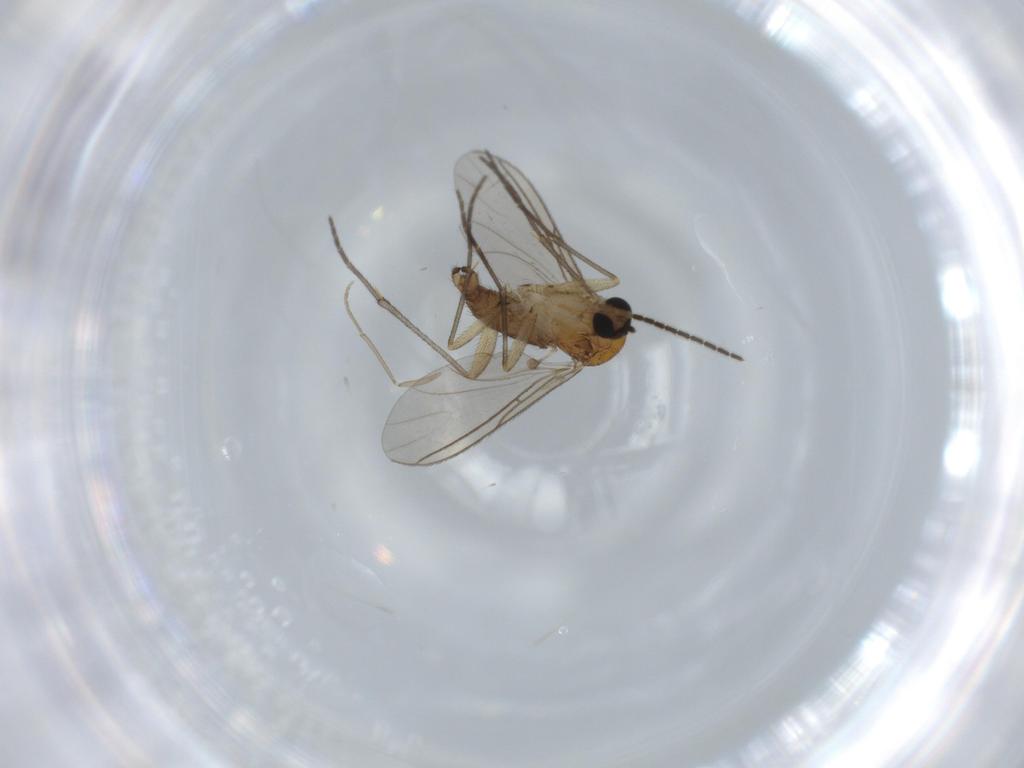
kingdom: Animalia
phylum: Arthropoda
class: Insecta
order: Diptera
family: Sciaridae
